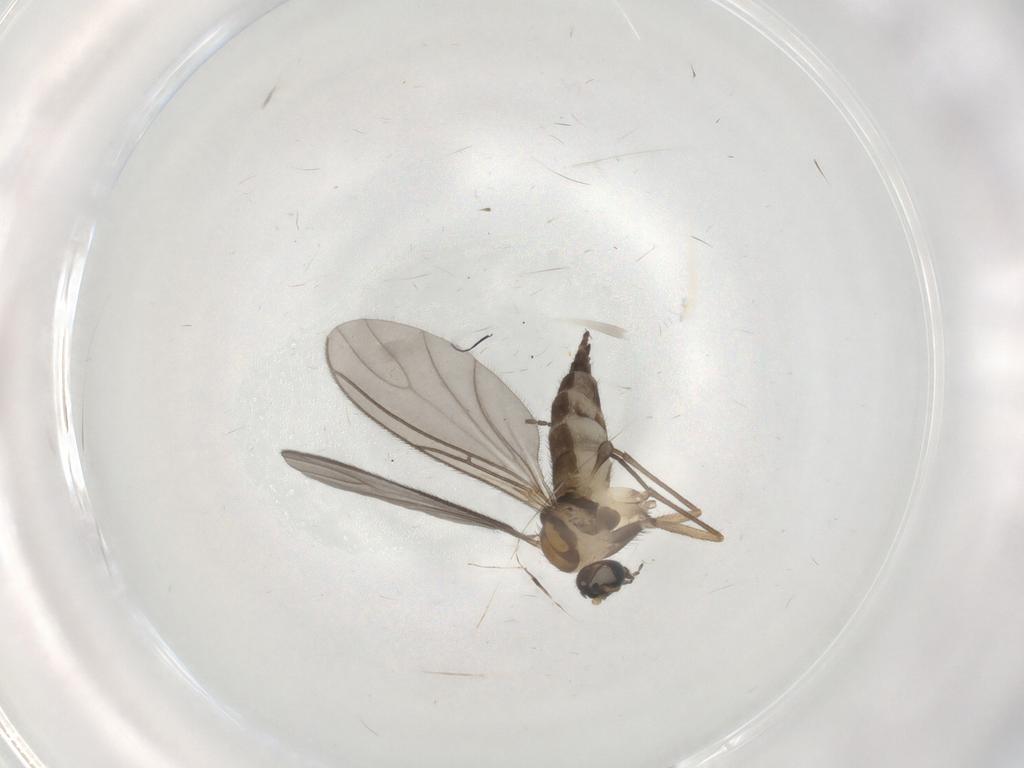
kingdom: Animalia
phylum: Arthropoda
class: Insecta
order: Diptera
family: Sciaridae
